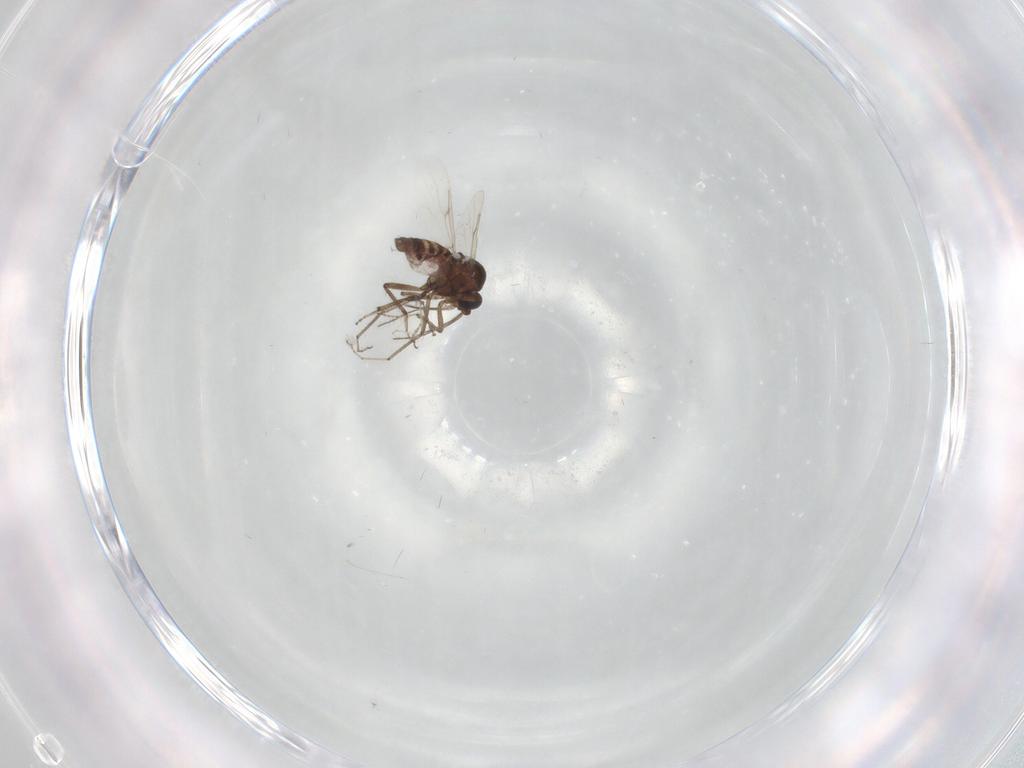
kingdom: Animalia
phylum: Arthropoda
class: Insecta
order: Diptera
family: Ceratopogonidae
